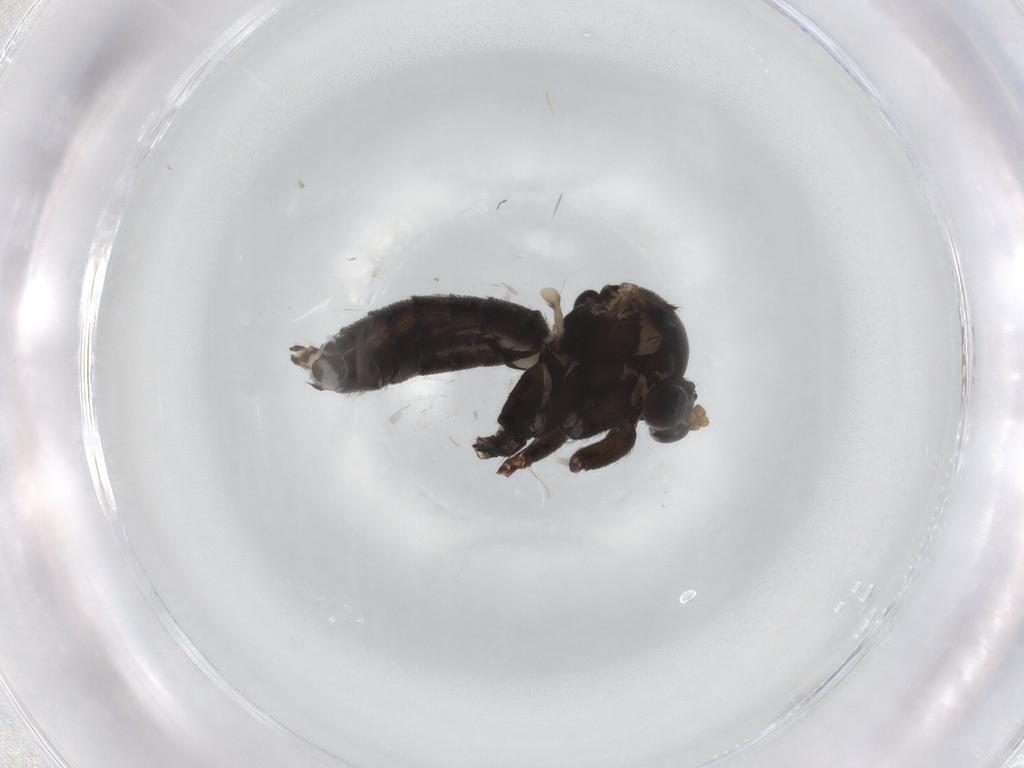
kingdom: Animalia
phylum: Arthropoda
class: Insecta
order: Diptera
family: Mycetophilidae
